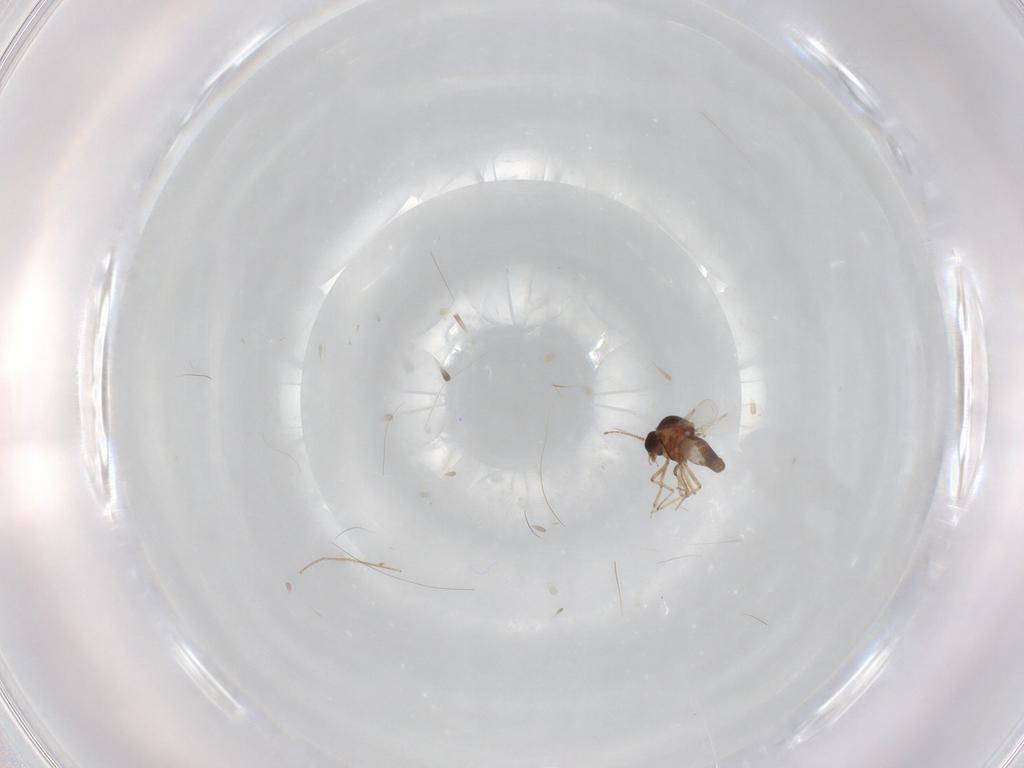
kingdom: Animalia
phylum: Arthropoda
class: Insecta
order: Diptera
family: Ceratopogonidae
